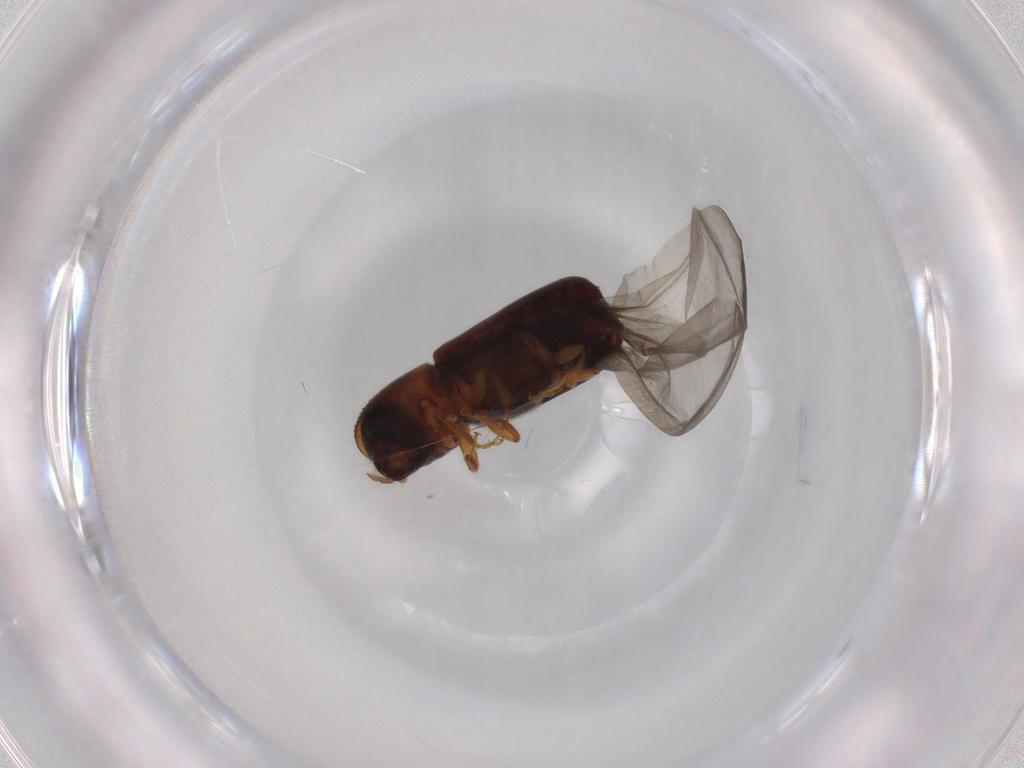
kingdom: Animalia
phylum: Arthropoda
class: Insecta
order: Coleoptera
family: Curculionidae
